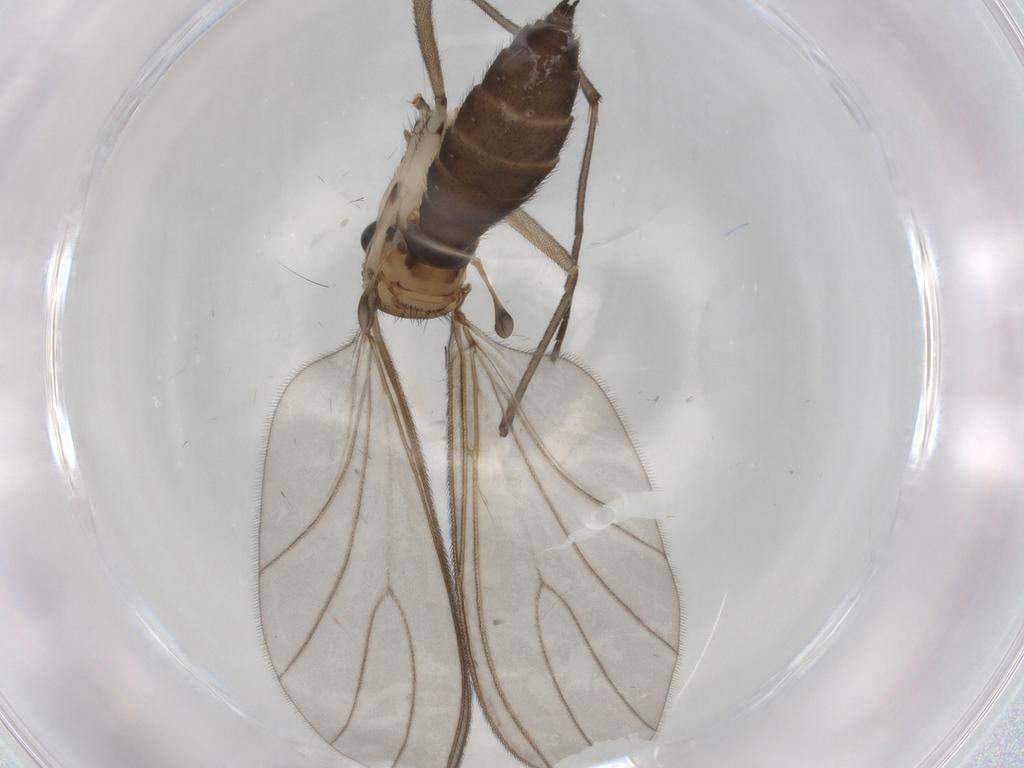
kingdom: Animalia
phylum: Arthropoda
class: Insecta
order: Diptera
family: Sciaridae
